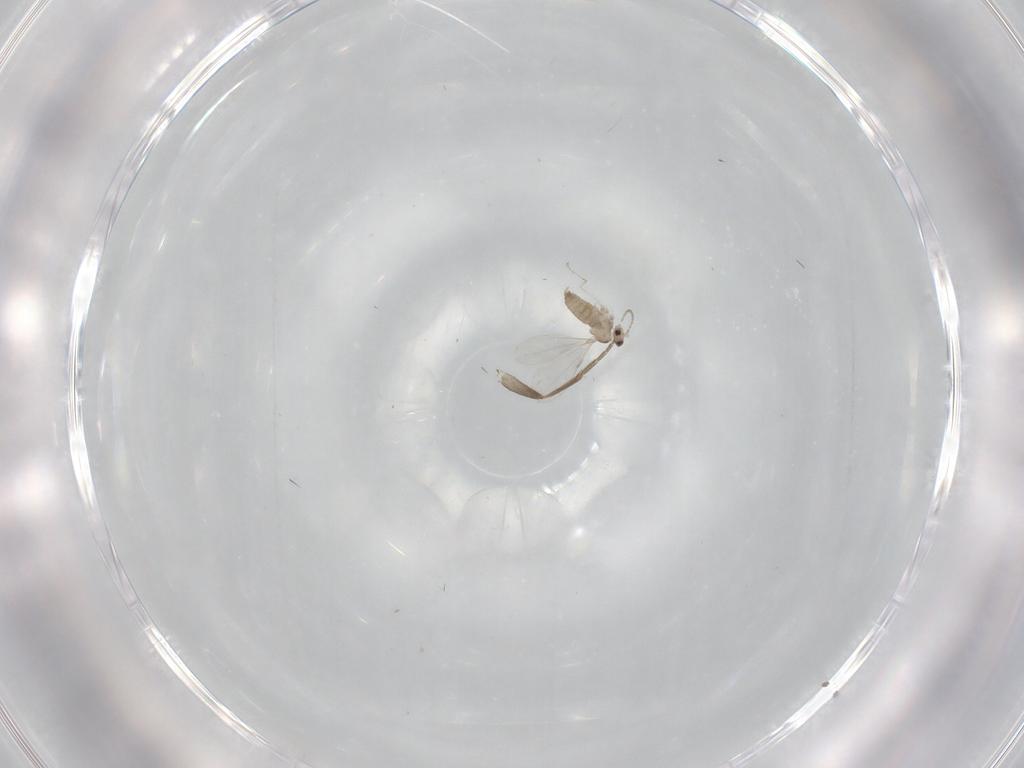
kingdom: Animalia
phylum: Arthropoda
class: Insecta
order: Diptera
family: Cecidomyiidae
